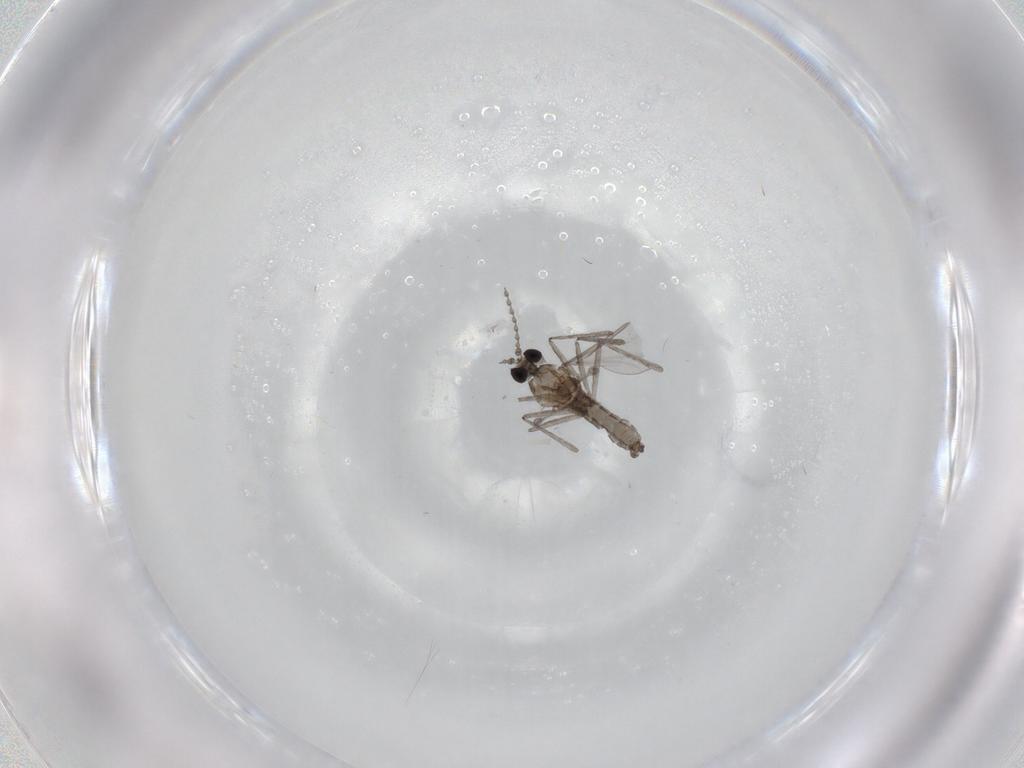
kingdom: Animalia
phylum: Arthropoda
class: Insecta
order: Diptera
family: Cecidomyiidae
